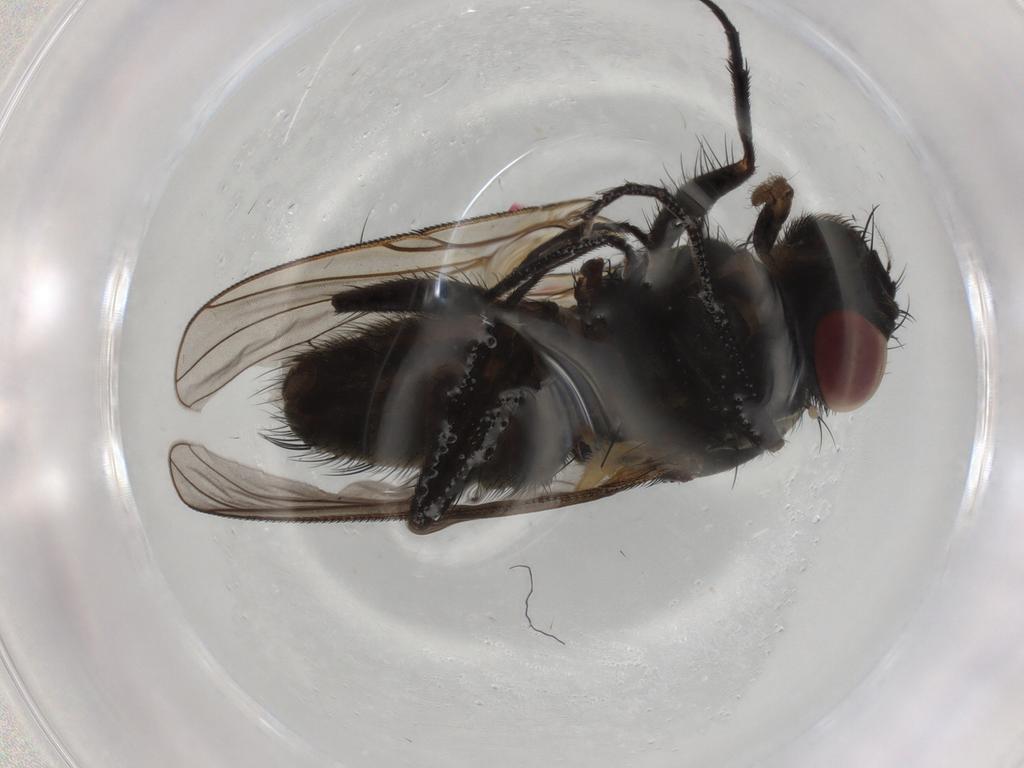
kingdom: Animalia
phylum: Arthropoda
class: Insecta
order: Diptera
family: Muscidae
